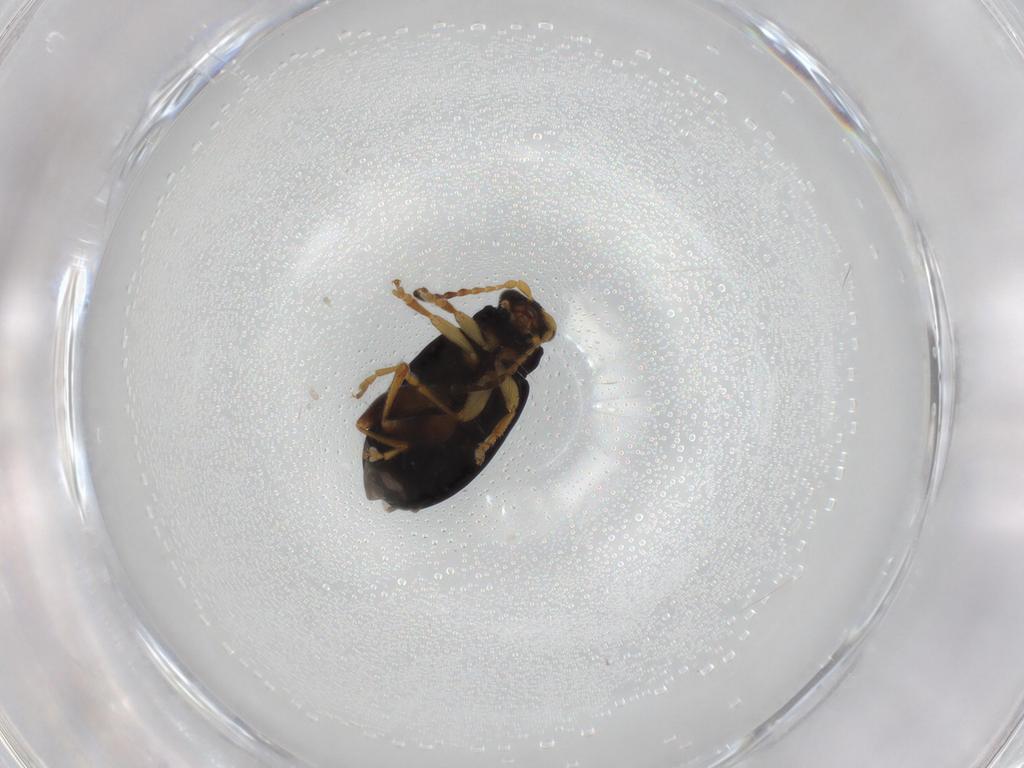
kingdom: Animalia
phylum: Arthropoda
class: Insecta
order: Coleoptera
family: Chrysomelidae
